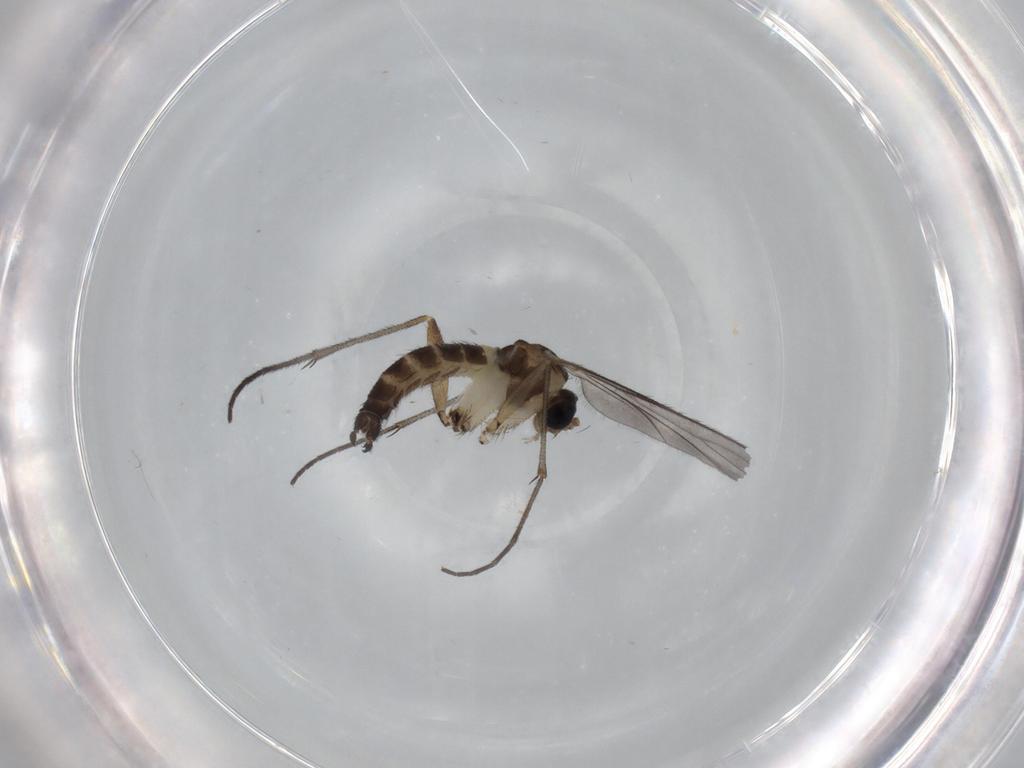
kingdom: Animalia
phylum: Arthropoda
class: Insecta
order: Diptera
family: Sciaridae
